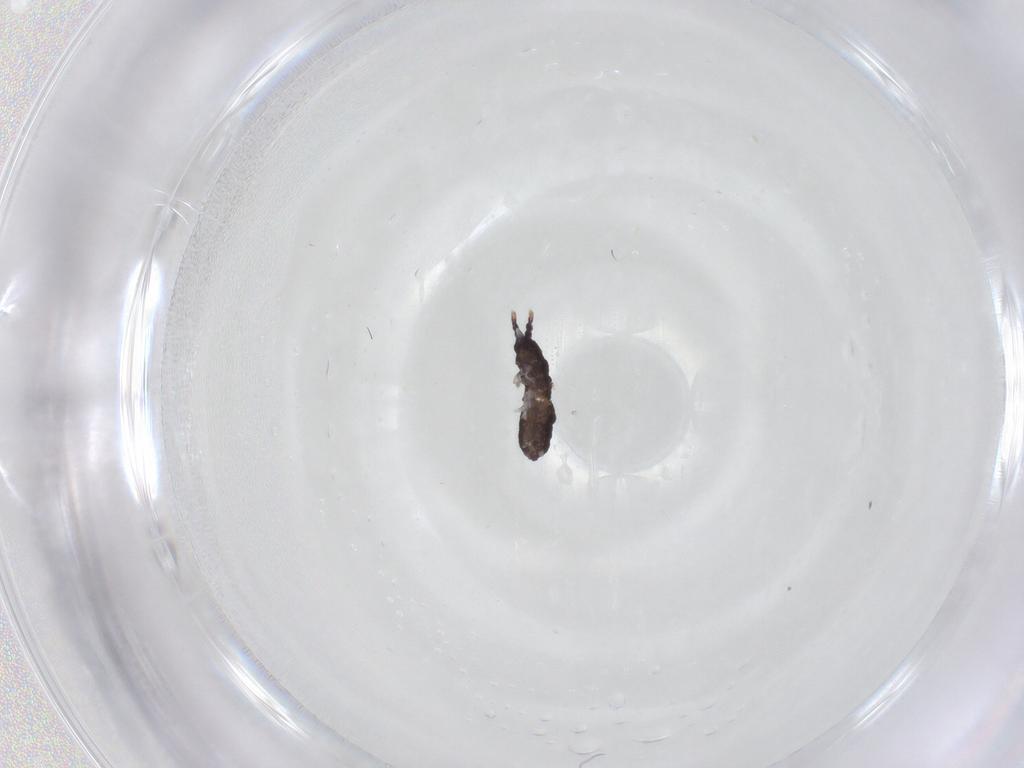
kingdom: Animalia
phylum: Arthropoda
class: Collembola
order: Poduromorpha
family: Neanuridae
